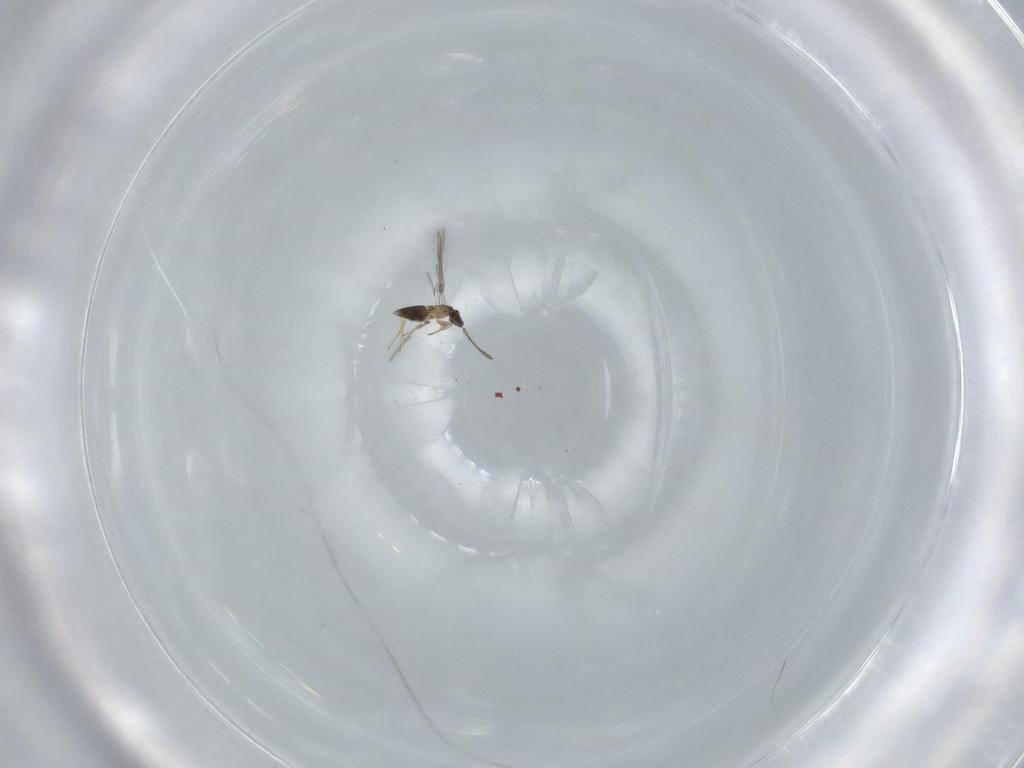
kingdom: Animalia
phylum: Arthropoda
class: Insecta
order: Hymenoptera
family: Mymaridae
